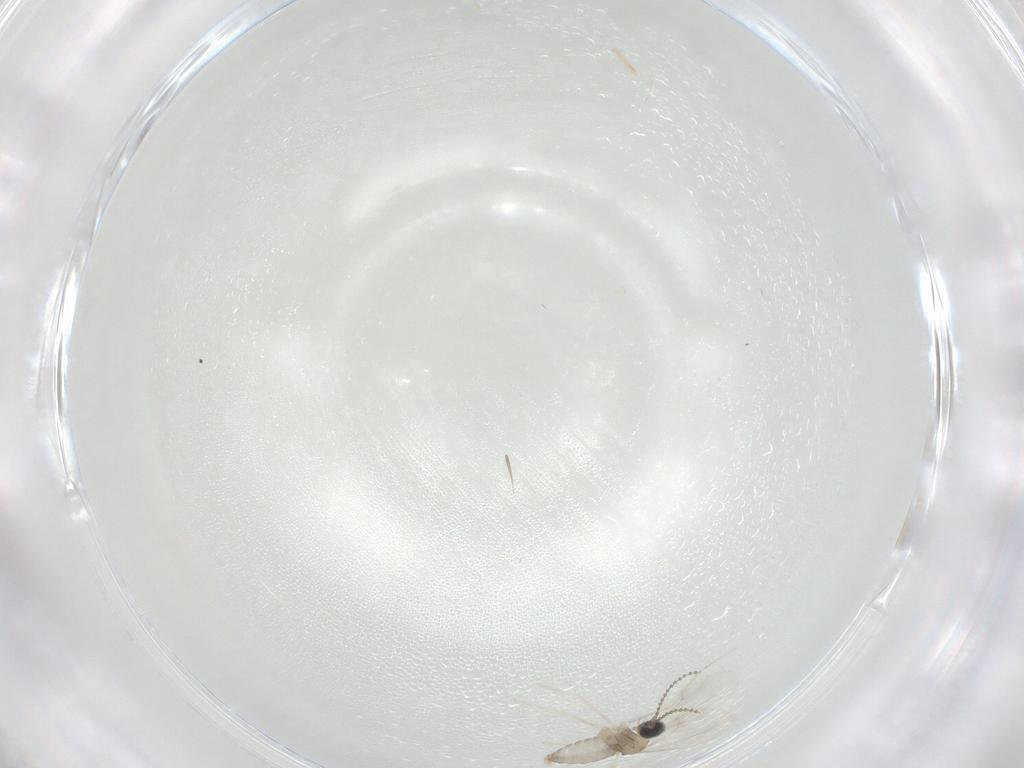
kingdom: Animalia
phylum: Arthropoda
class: Insecta
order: Diptera
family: Cecidomyiidae
